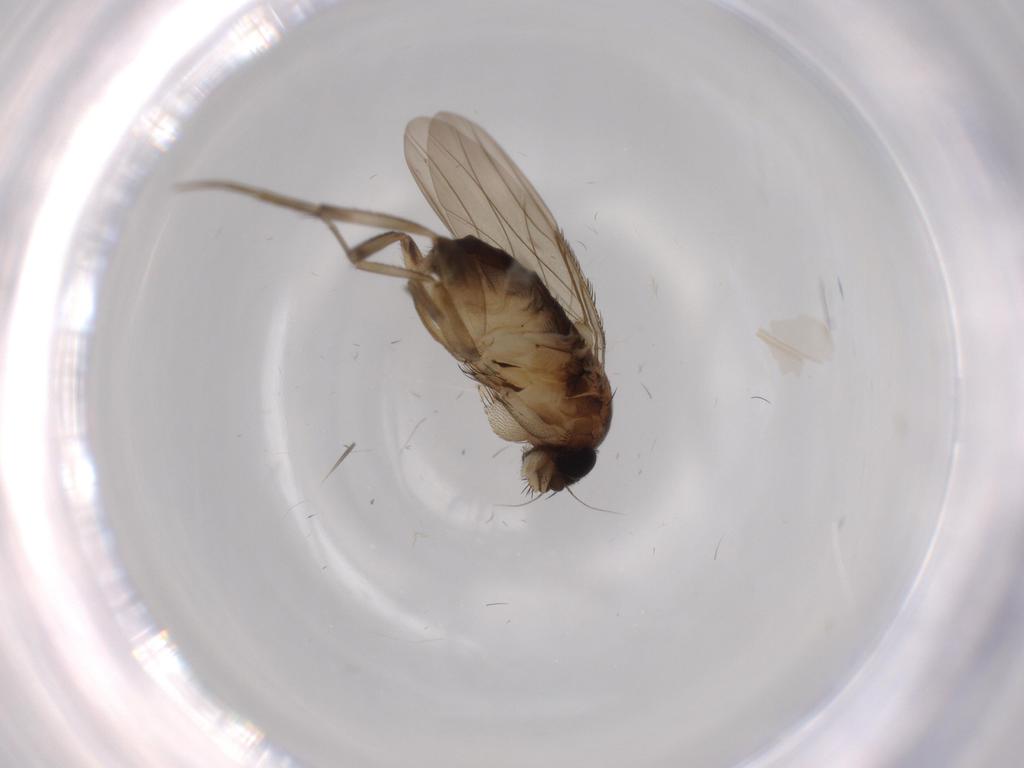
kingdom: Animalia
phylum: Arthropoda
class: Insecta
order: Diptera
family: Phoridae
